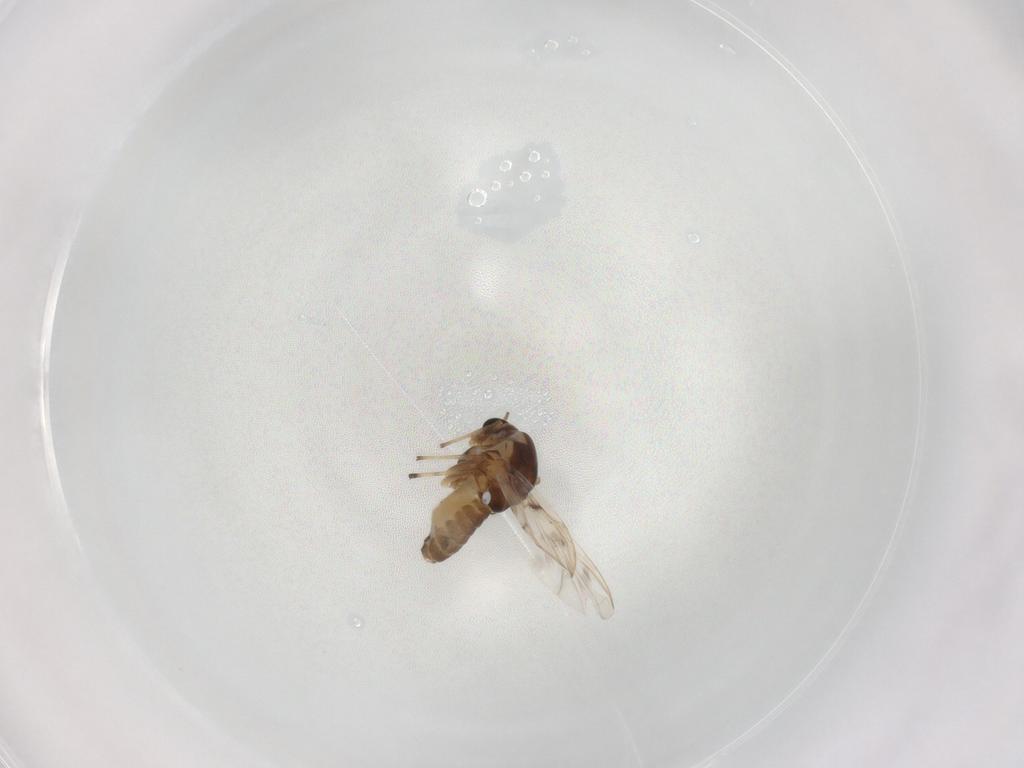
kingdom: Animalia
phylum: Arthropoda
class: Insecta
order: Diptera
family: Chironomidae
